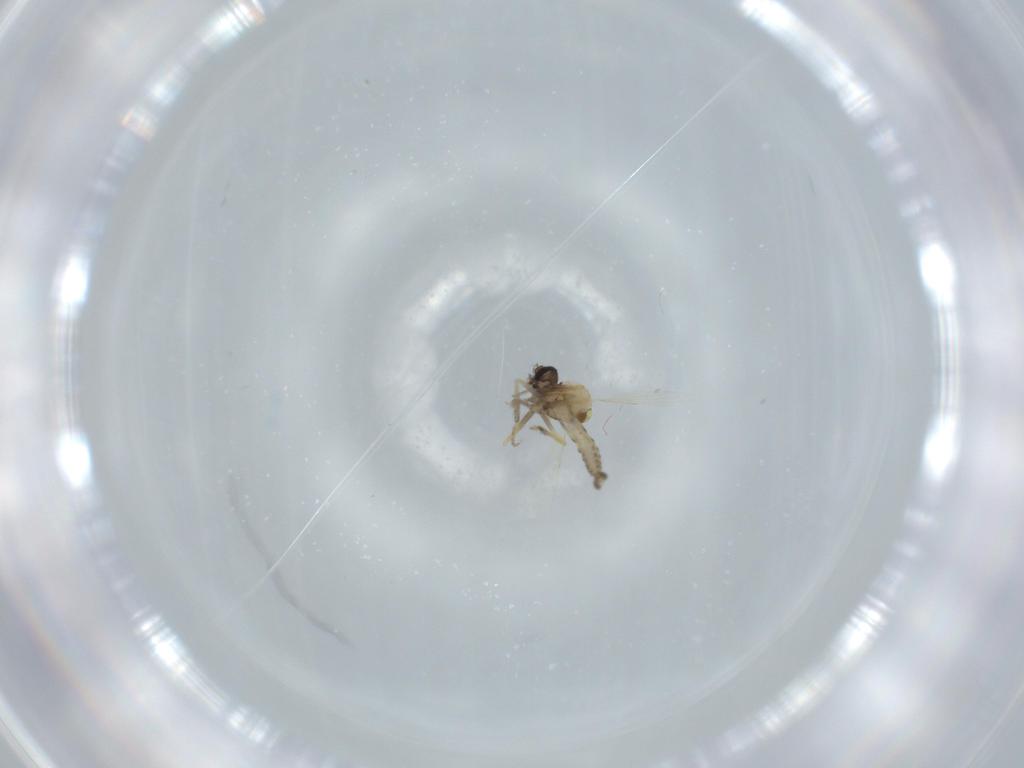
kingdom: Animalia
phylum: Arthropoda
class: Insecta
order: Diptera
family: Ceratopogonidae
